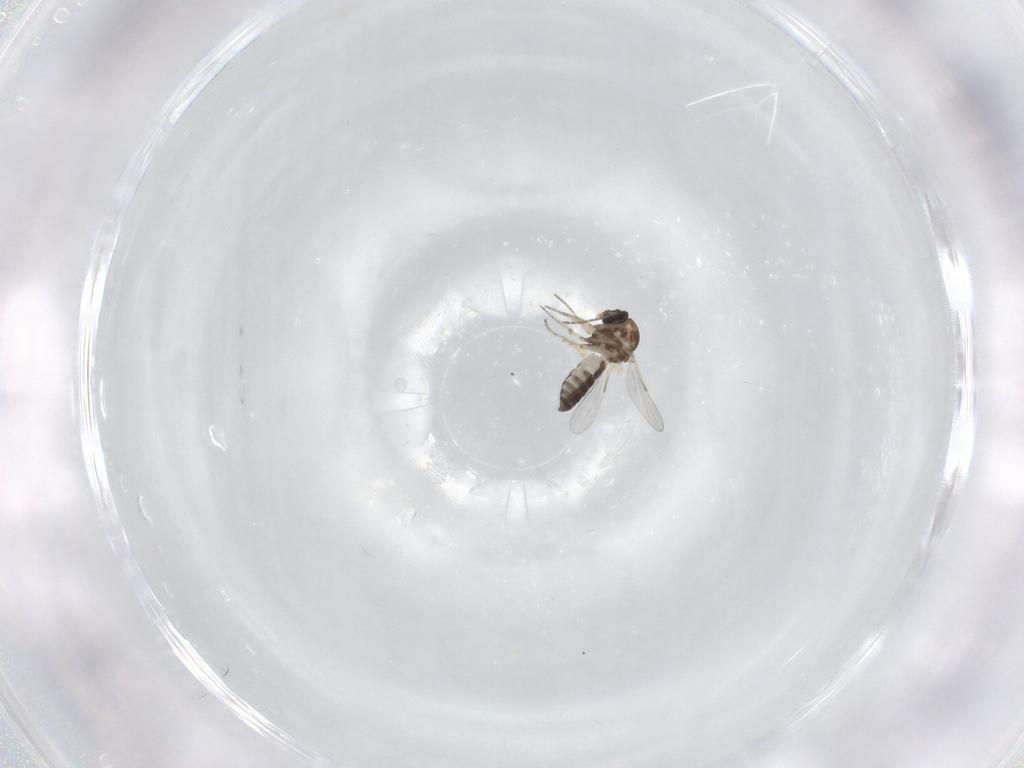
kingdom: Animalia
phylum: Arthropoda
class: Insecta
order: Diptera
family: Ceratopogonidae
